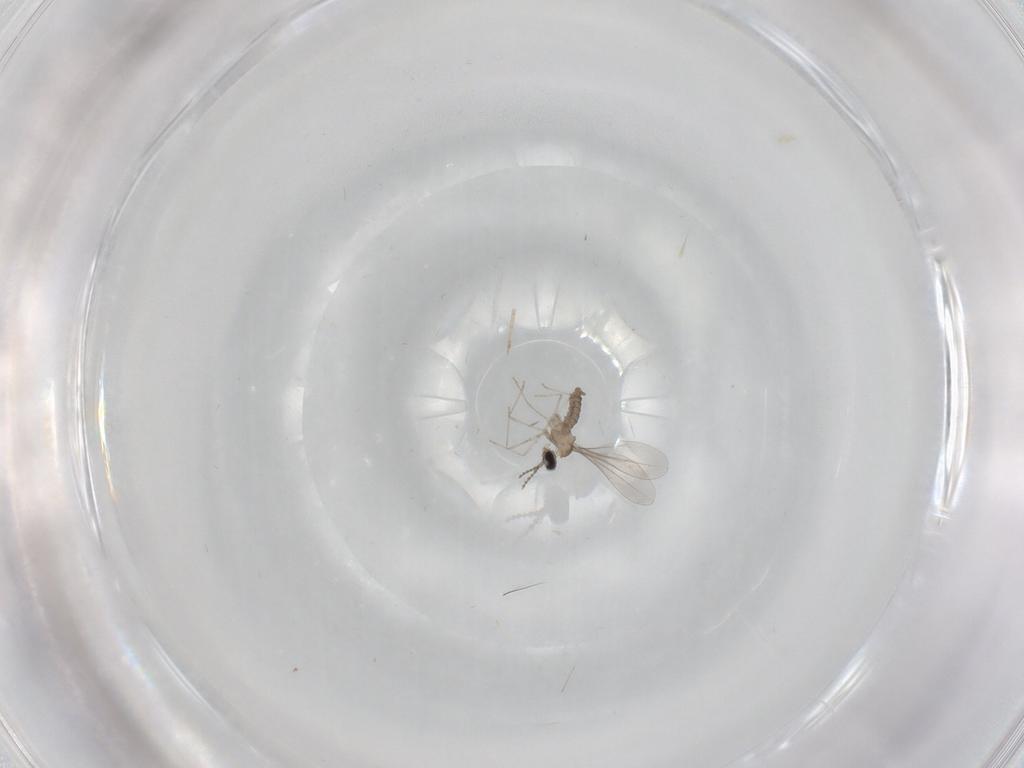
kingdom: Animalia
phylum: Arthropoda
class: Insecta
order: Diptera
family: Cecidomyiidae
